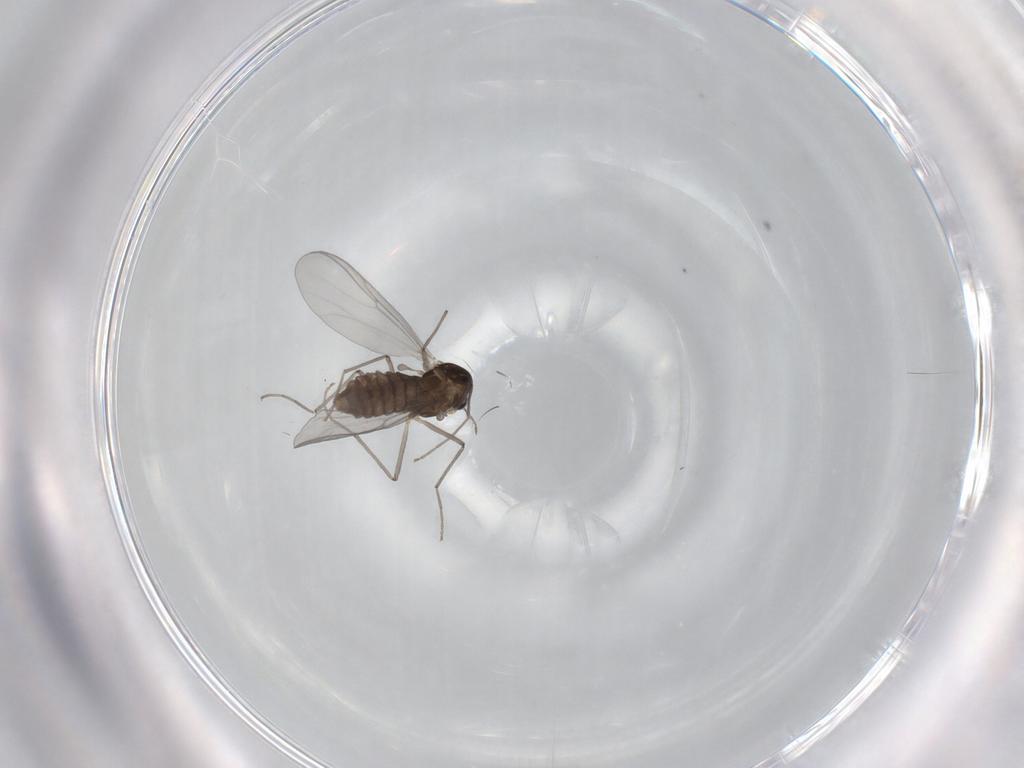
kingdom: Animalia
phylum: Arthropoda
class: Insecta
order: Diptera
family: Chironomidae
